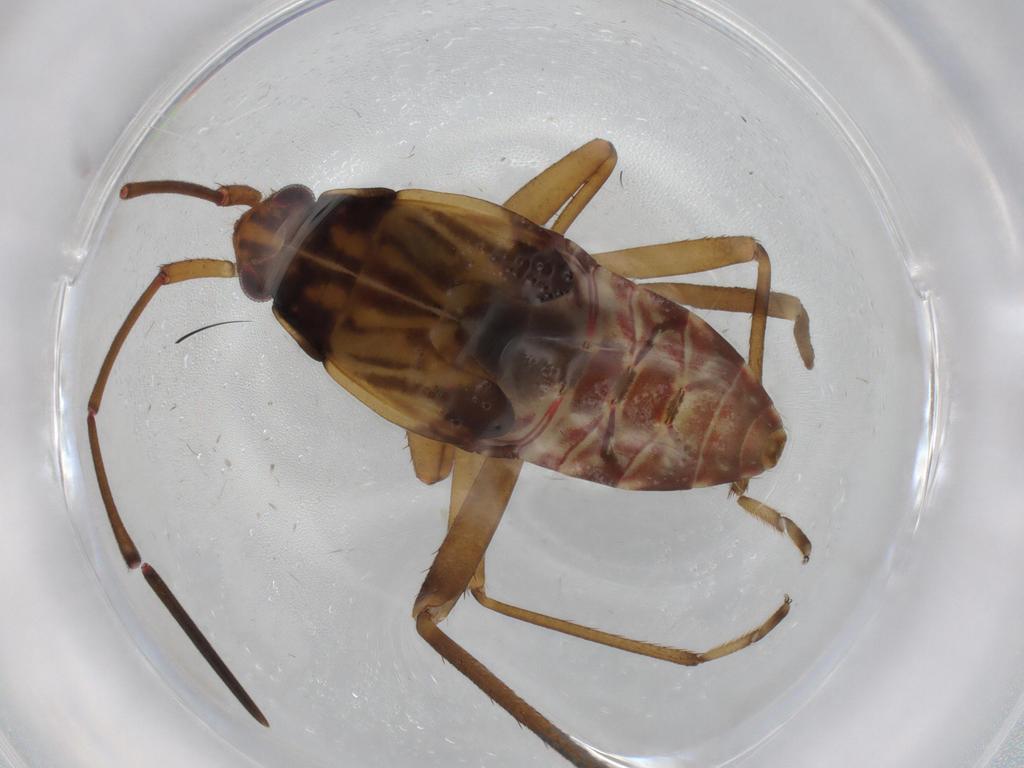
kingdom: Animalia
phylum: Arthropoda
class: Insecta
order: Hemiptera
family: Rhyparochromidae
